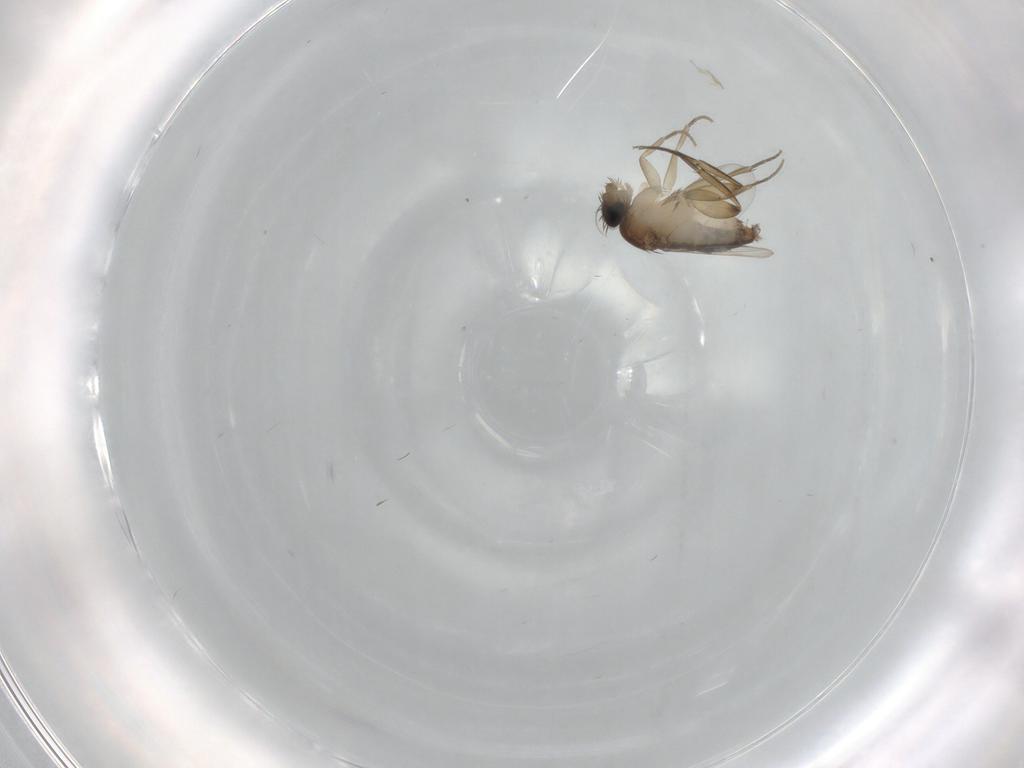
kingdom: Animalia
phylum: Arthropoda
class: Insecta
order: Diptera
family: Phoridae
